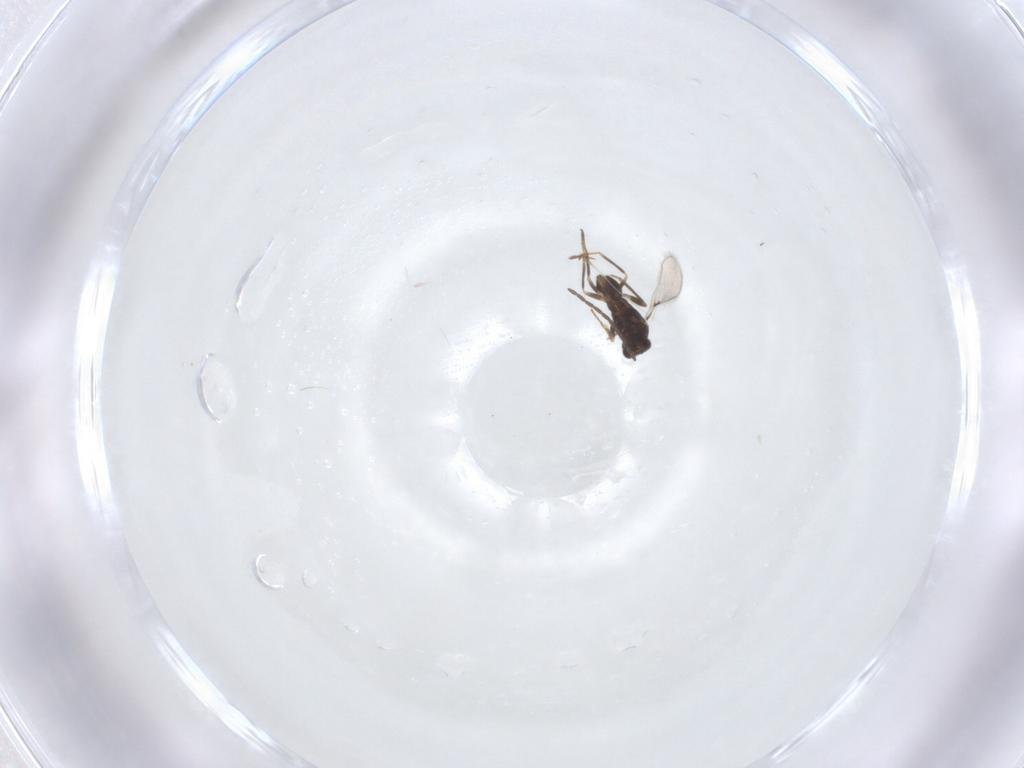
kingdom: Animalia
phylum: Arthropoda
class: Insecta
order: Hymenoptera
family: Mymaridae
